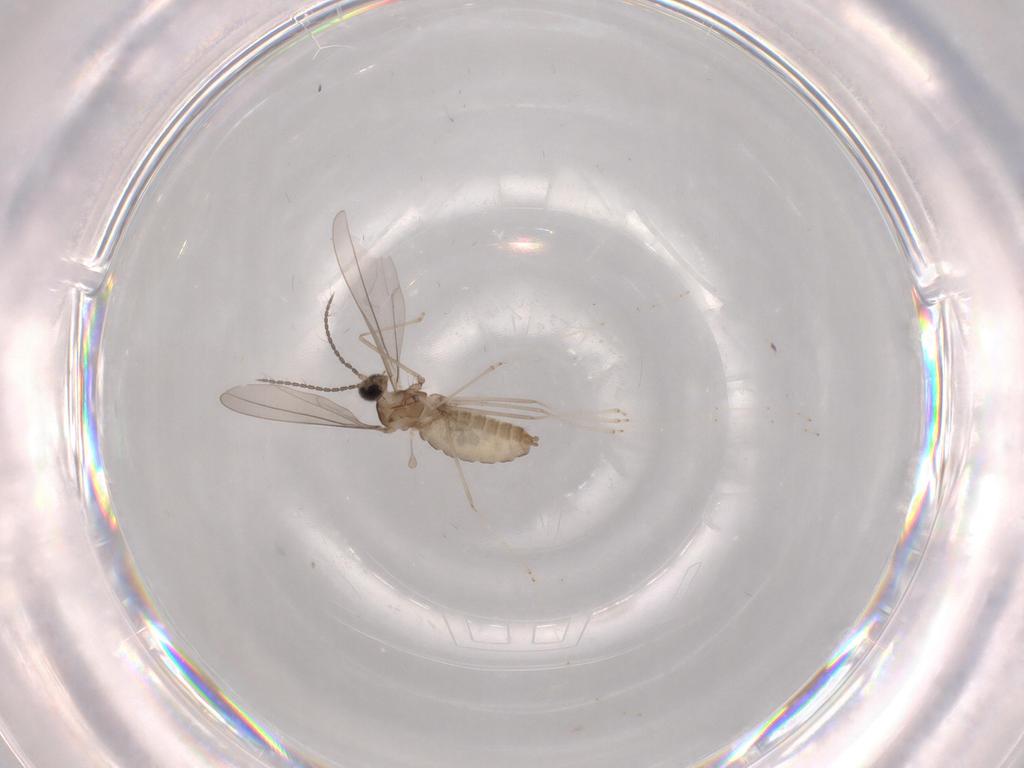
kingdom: Animalia
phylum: Arthropoda
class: Insecta
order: Diptera
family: Cecidomyiidae
